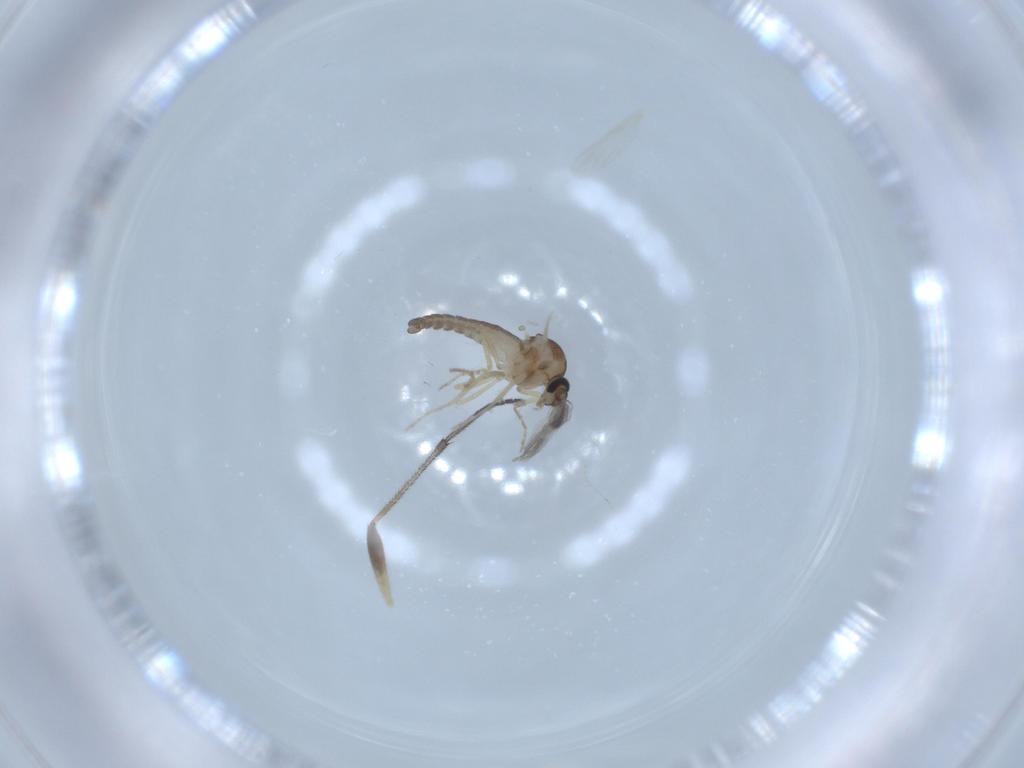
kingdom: Animalia
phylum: Arthropoda
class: Insecta
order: Diptera
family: Ceratopogonidae
